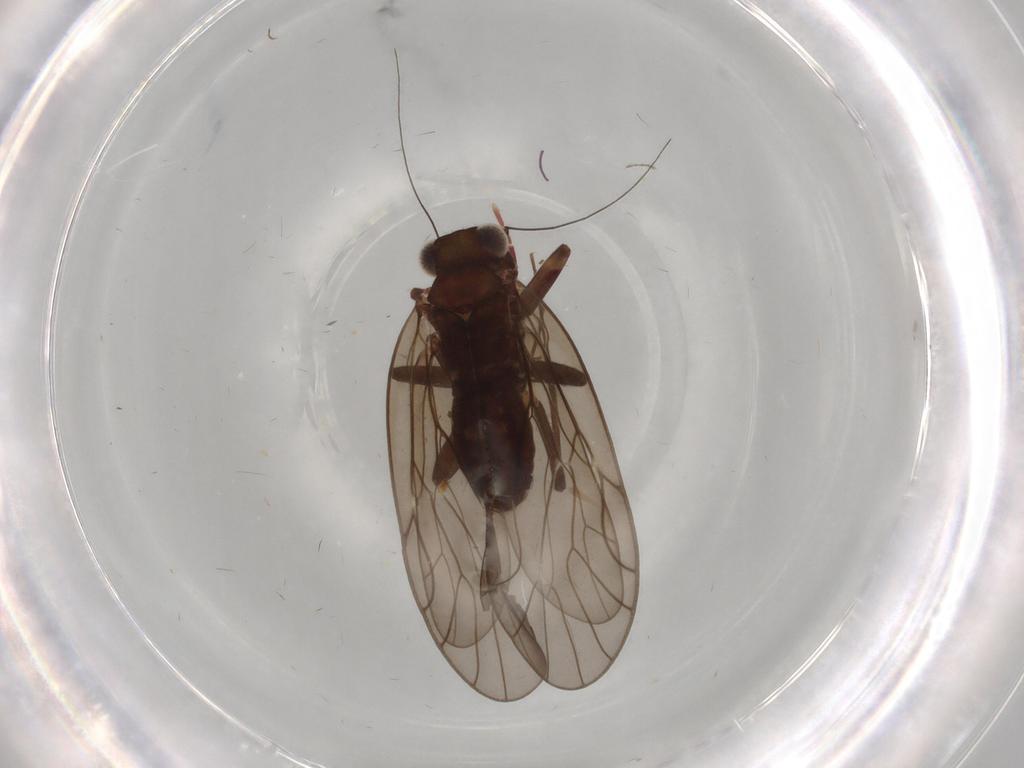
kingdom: Animalia
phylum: Arthropoda
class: Insecta
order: Psocodea
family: Philotarsidae
